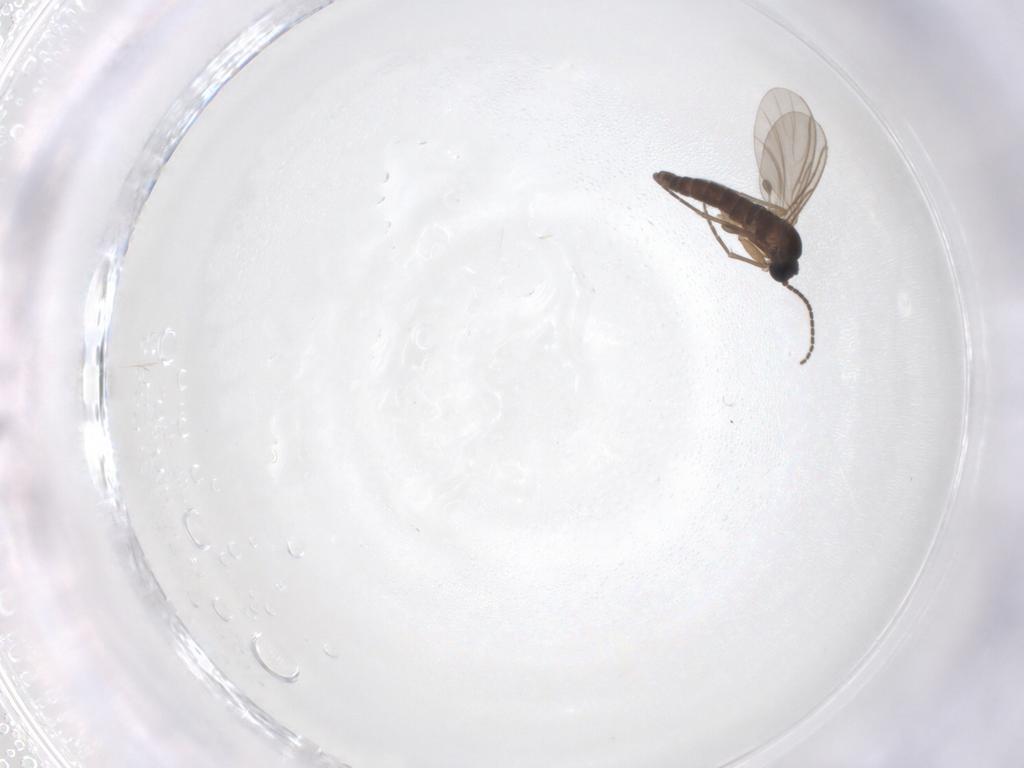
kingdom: Animalia
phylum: Arthropoda
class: Insecta
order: Diptera
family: Sciaridae
